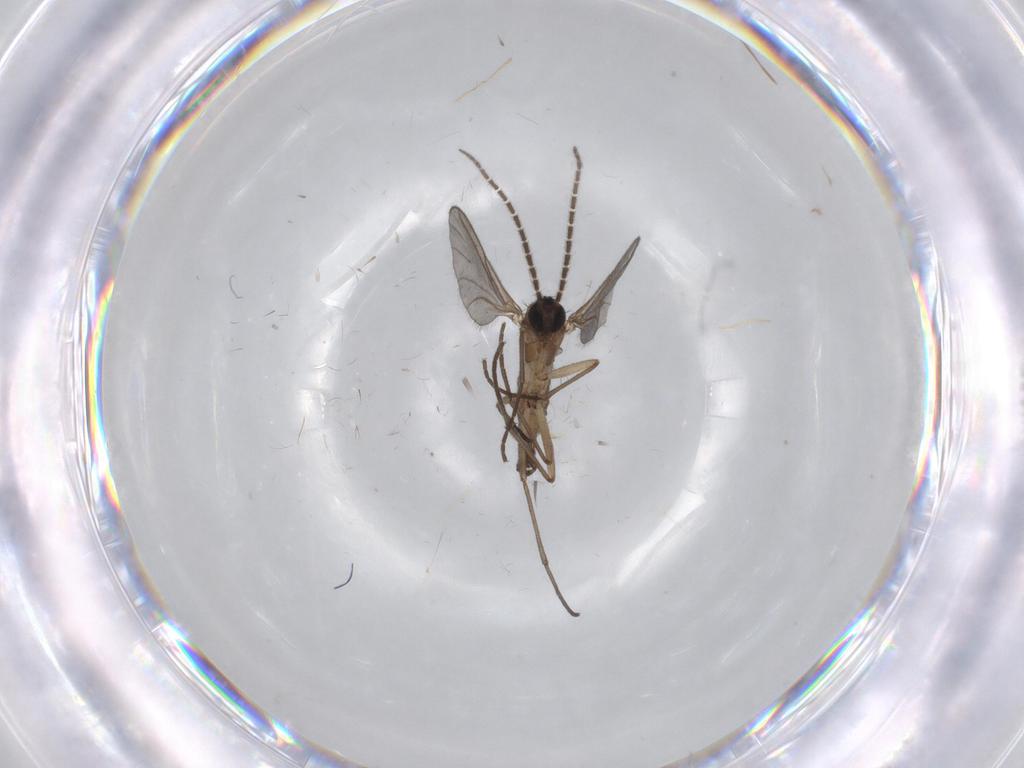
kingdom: Animalia
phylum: Arthropoda
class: Insecta
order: Diptera
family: Sciaridae
